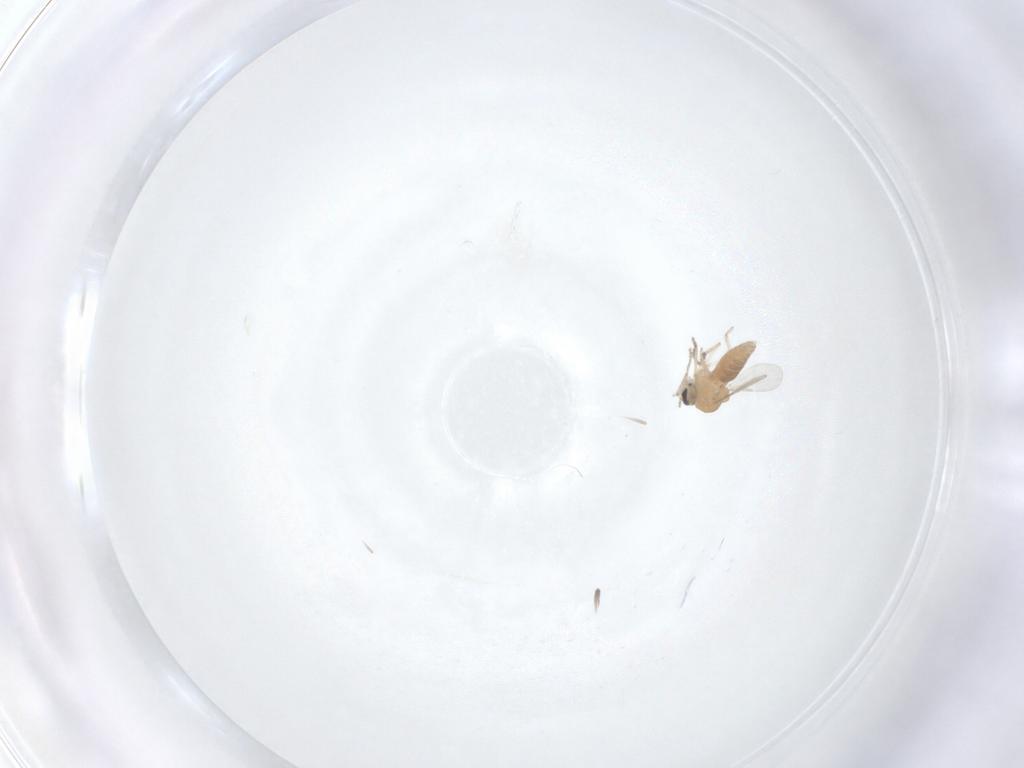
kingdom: Animalia
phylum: Arthropoda
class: Insecta
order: Diptera
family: Ceratopogonidae
